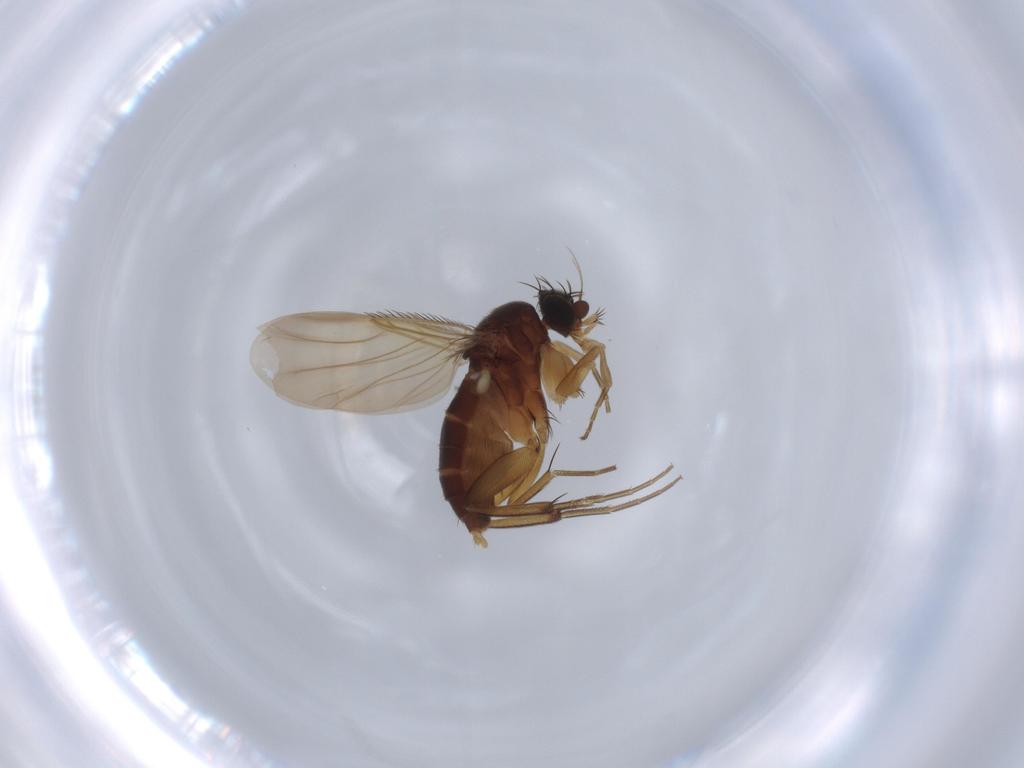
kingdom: Animalia
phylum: Arthropoda
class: Insecta
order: Diptera
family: Phoridae
